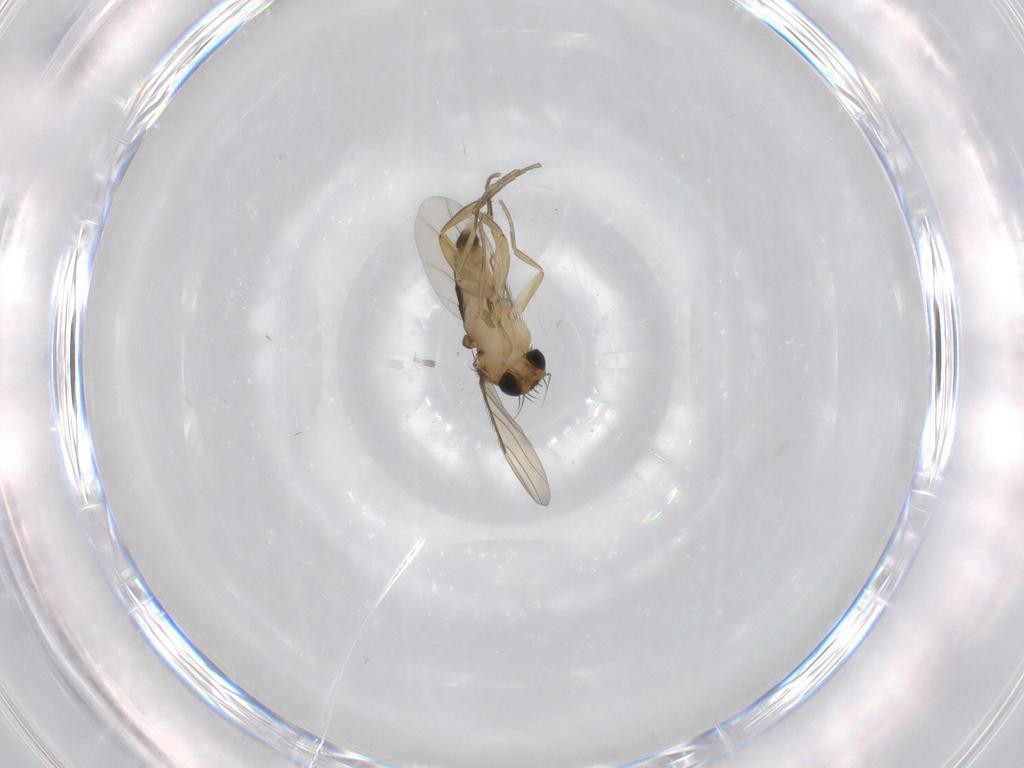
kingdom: Animalia
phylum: Arthropoda
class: Insecta
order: Diptera
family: Phoridae
